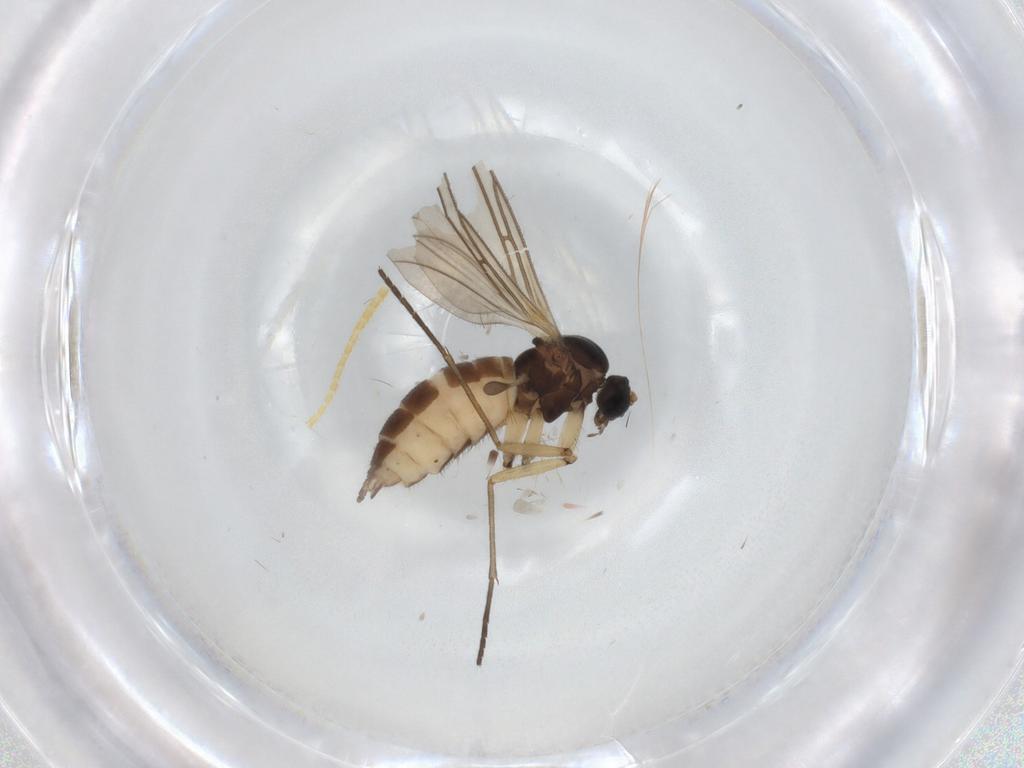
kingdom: Animalia
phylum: Arthropoda
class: Insecta
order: Diptera
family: Sciaridae
